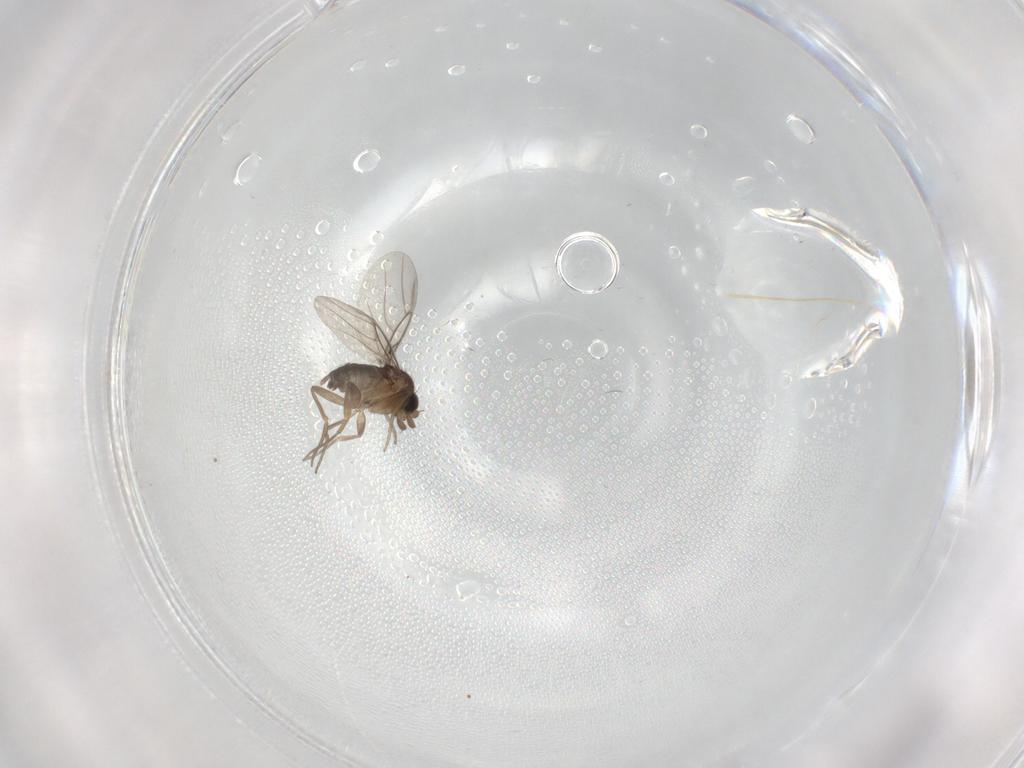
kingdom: Animalia
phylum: Arthropoda
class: Insecta
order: Diptera
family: Phoridae
